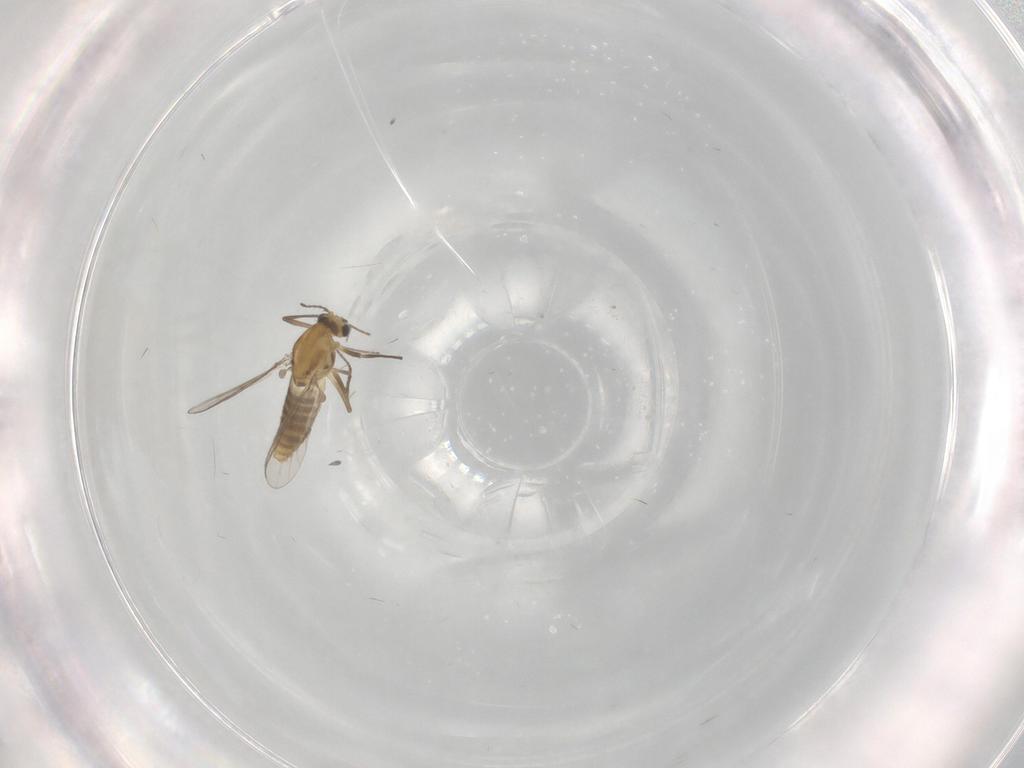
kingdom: Animalia
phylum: Arthropoda
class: Insecta
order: Diptera
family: Chironomidae
